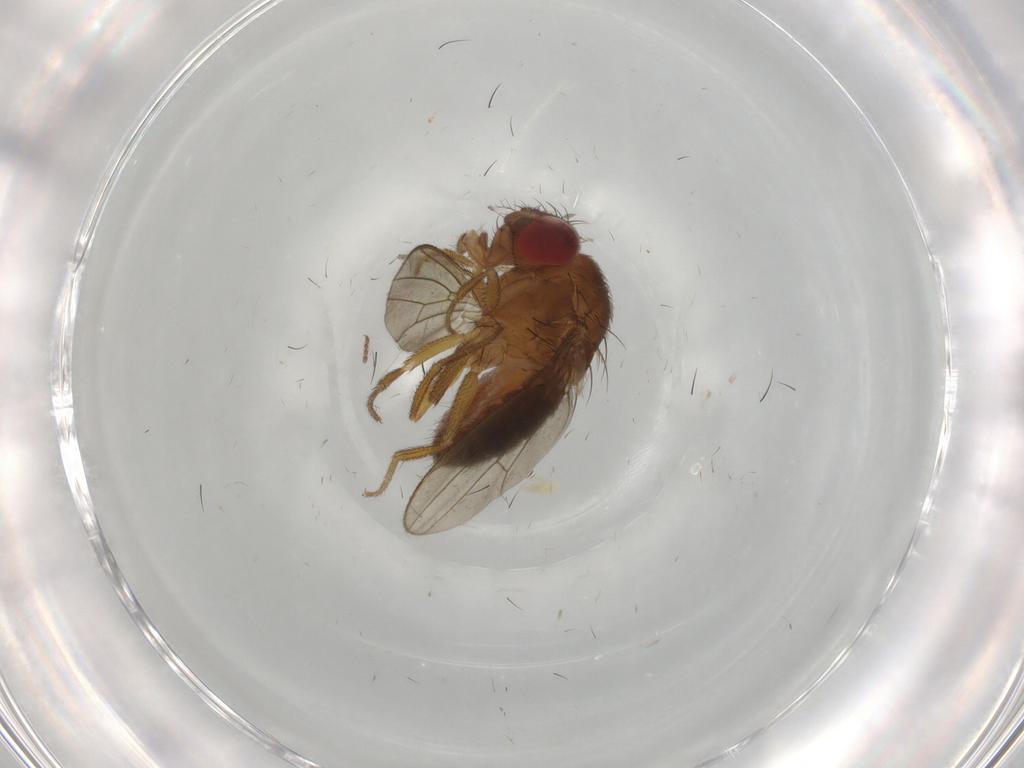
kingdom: Animalia
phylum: Arthropoda
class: Insecta
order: Diptera
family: Drosophilidae
